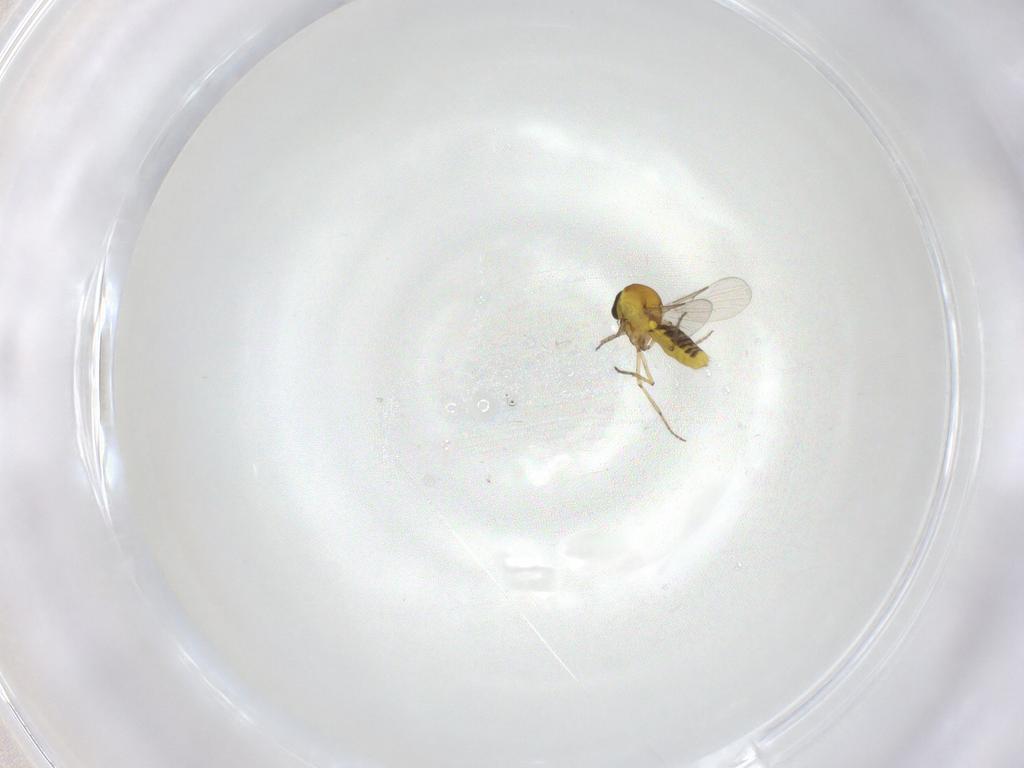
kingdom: Animalia
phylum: Arthropoda
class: Insecta
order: Diptera
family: Ceratopogonidae
